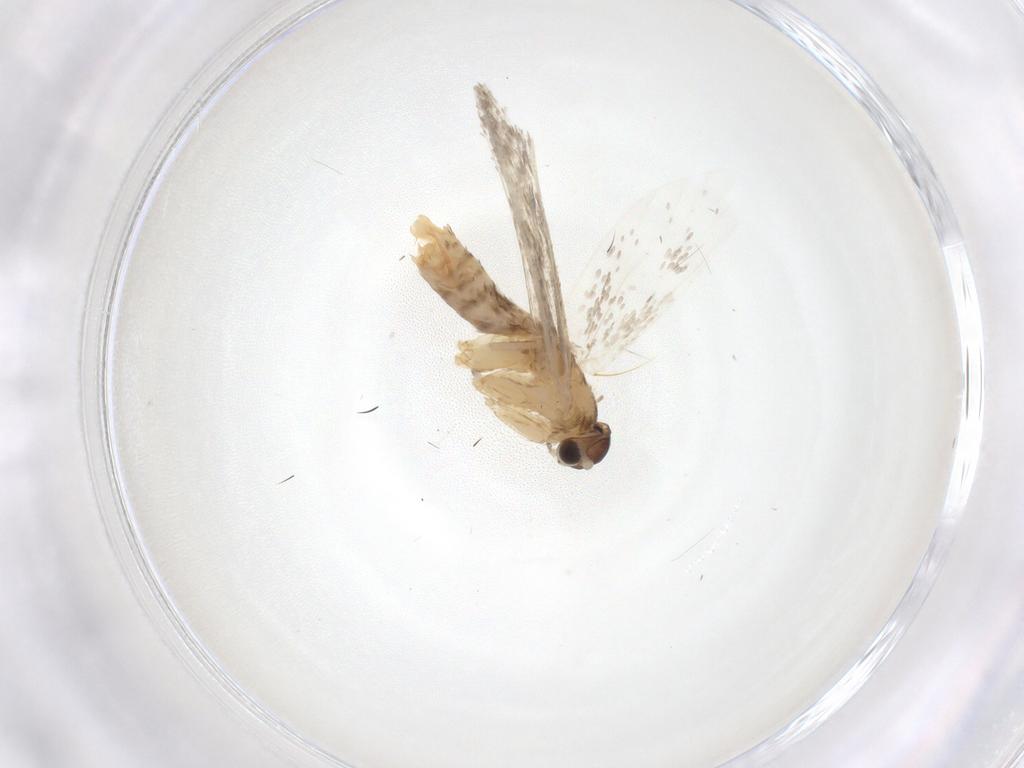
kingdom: Animalia
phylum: Arthropoda
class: Insecta
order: Lepidoptera
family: Dryadaulidae
